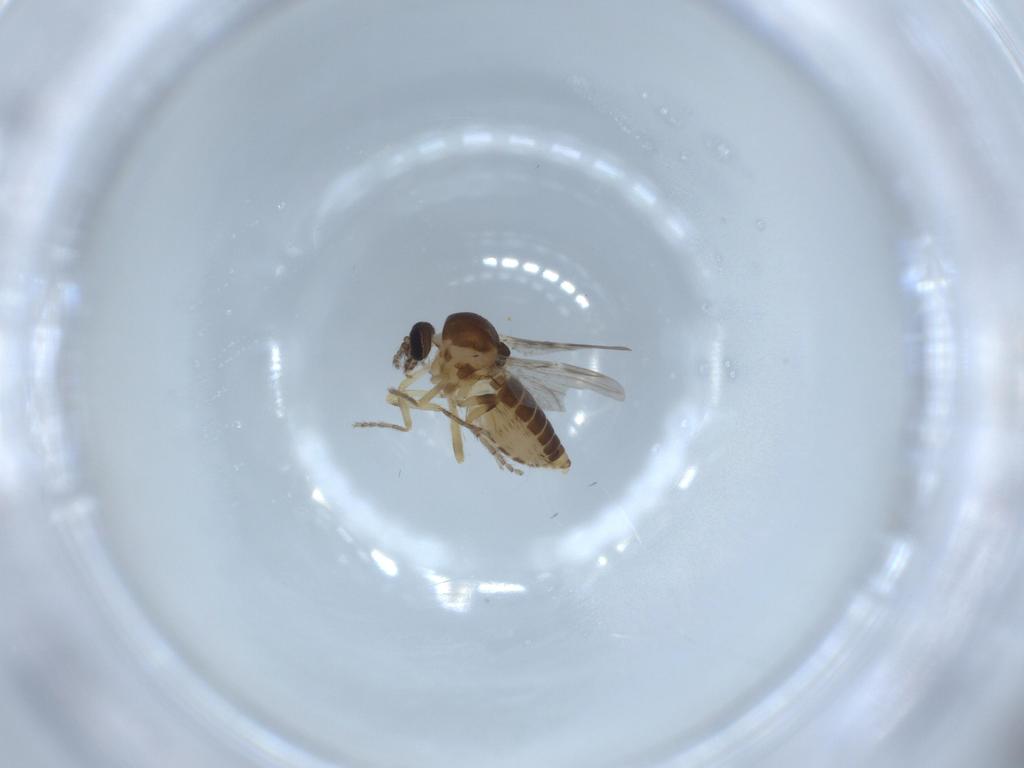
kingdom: Animalia
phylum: Arthropoda
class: Insecta
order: Diptera
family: Ceratopogonidae
